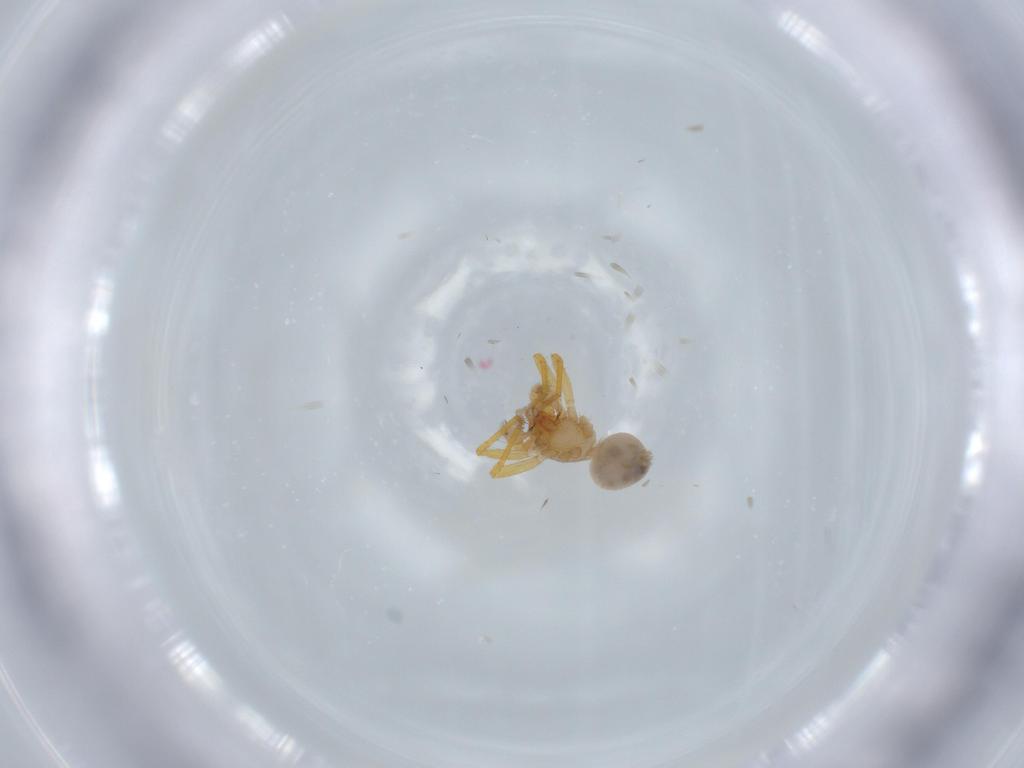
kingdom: Animalia
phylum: Arthropoda
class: Arachnida
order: Araneae
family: Oonopidae
